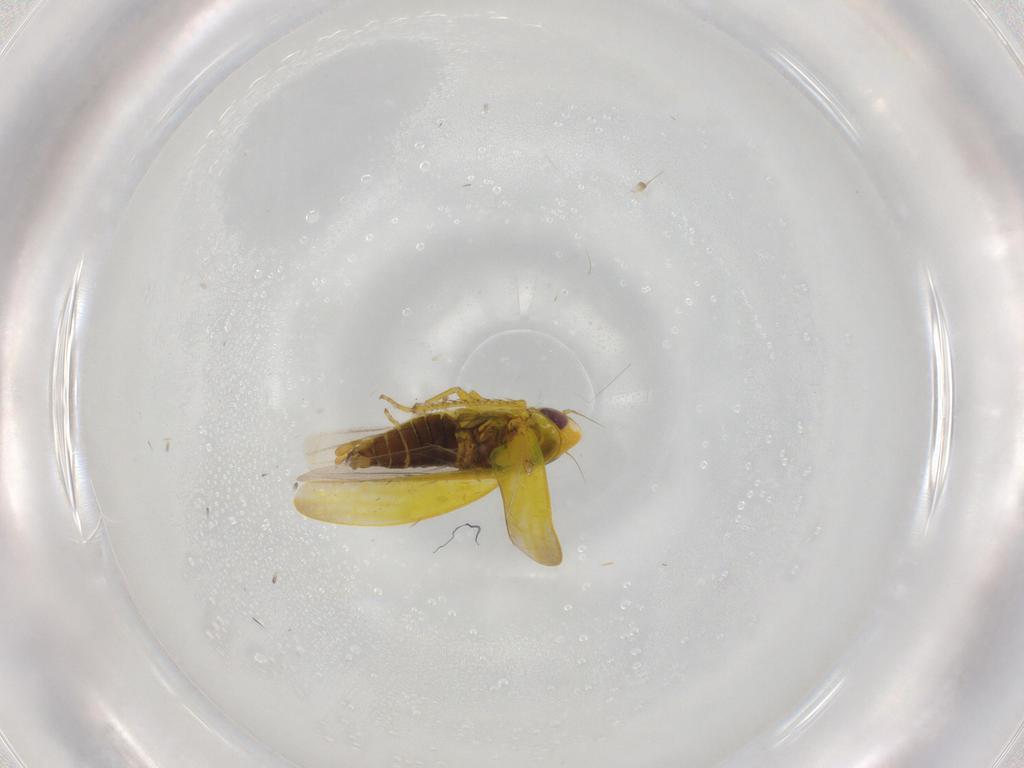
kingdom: Animalia
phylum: Arthropoda
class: Insecta
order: Hemiptera
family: Cicadellidae
